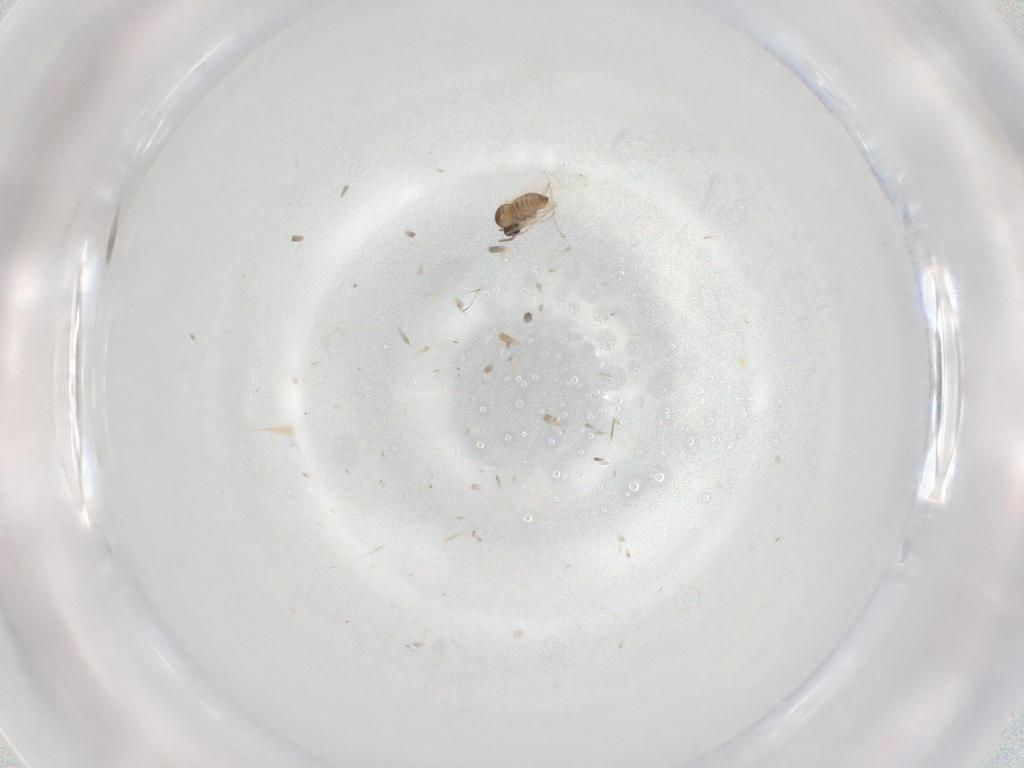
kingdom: Animalia
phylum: Arthropoda
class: Insecta
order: Diptera
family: Cecidomyiidae
